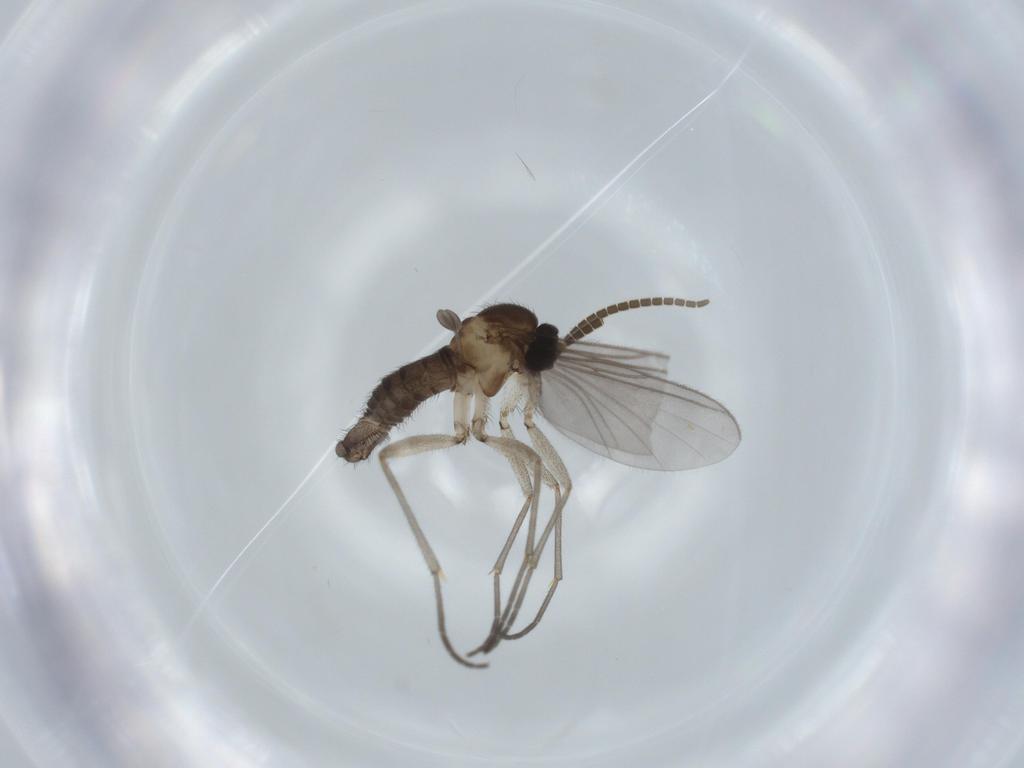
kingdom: Animalia
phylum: Arthropoda
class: Insecta
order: Diptera
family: Sciaridae
